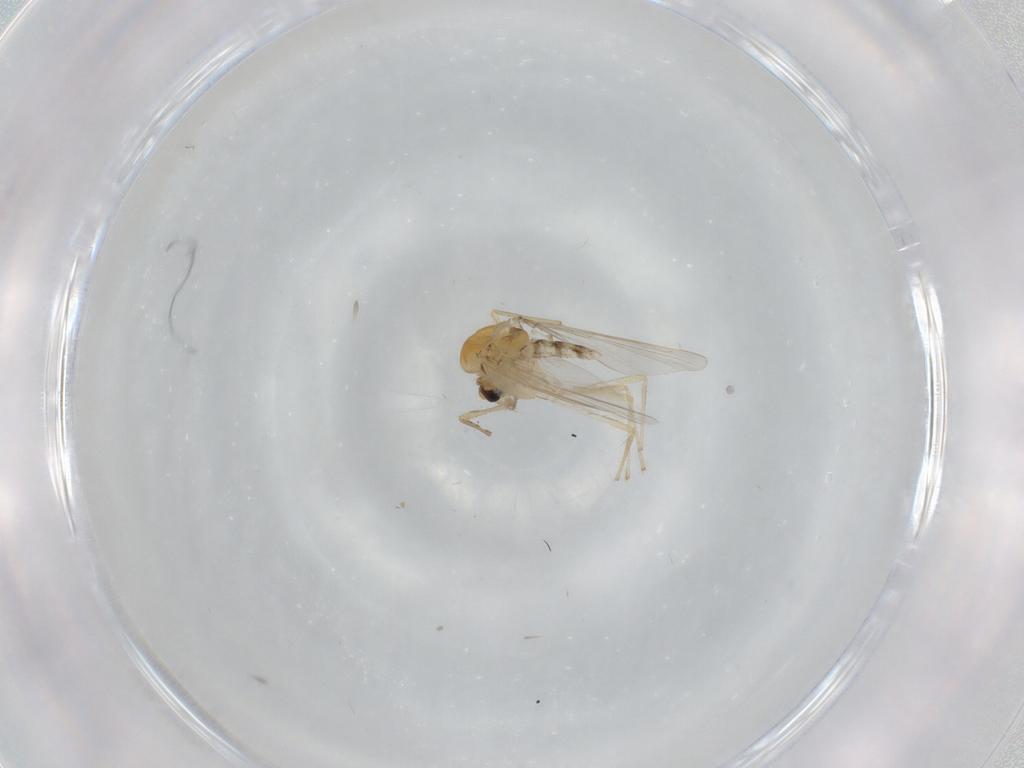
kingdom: Animalia
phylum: Arthropoda
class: Insecta
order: Diptera
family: Chironomidae
